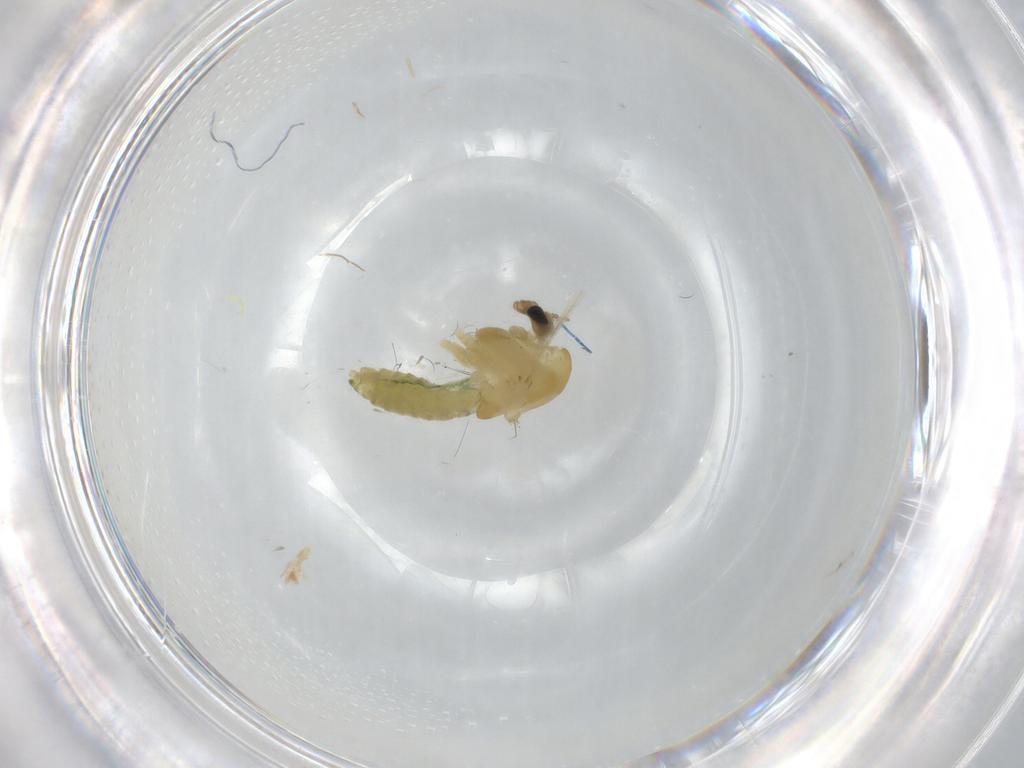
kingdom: Animalia
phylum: Arthropoda
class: Insecta
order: Diptera
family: Chironomidae
